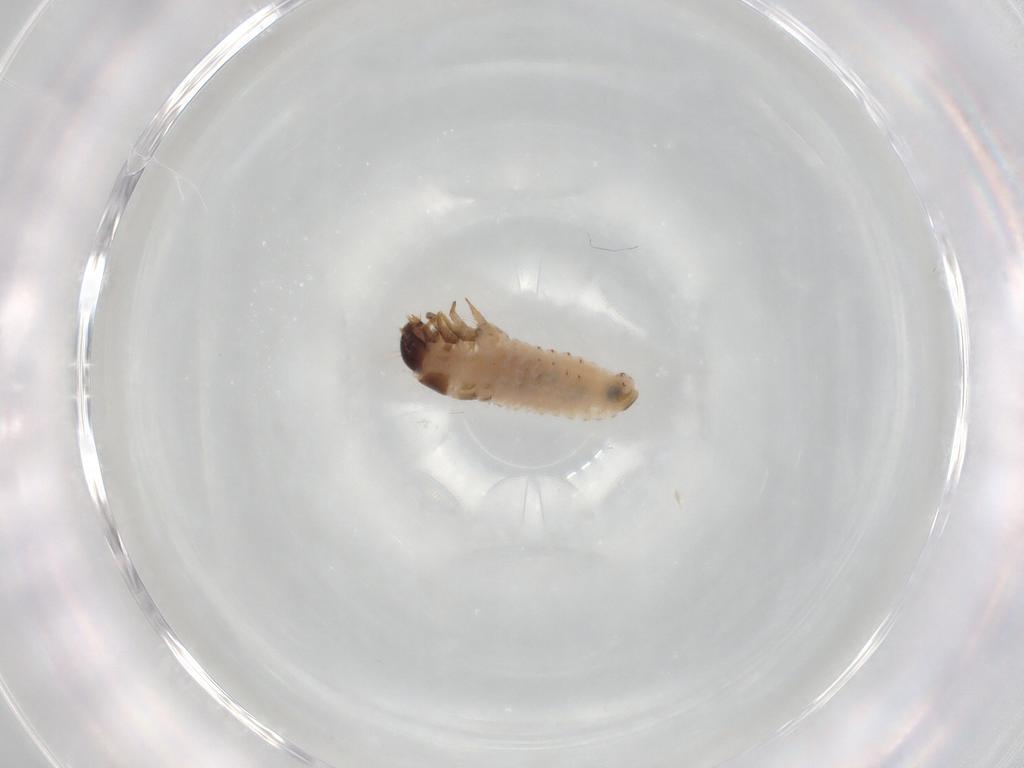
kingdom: Animalia
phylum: Arthropoda
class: Insecta
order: Lepidoptera
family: Psychidae
